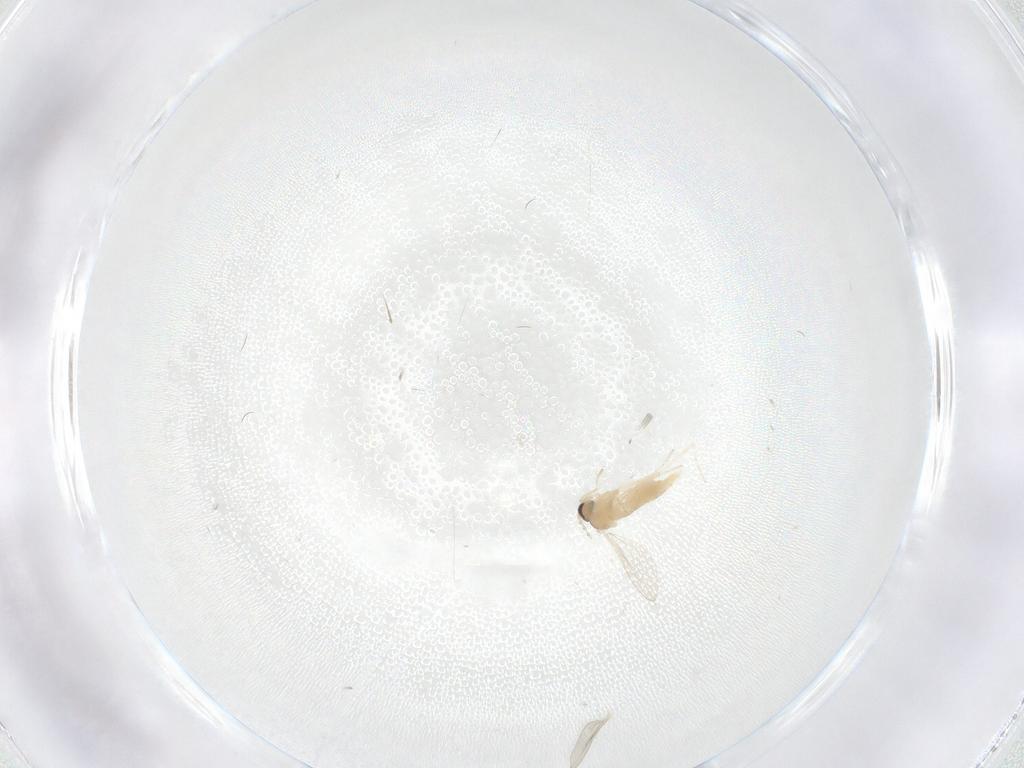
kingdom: Animalia
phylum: Arthropoda
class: Insecta
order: Diptera
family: Cecidomyiidae
